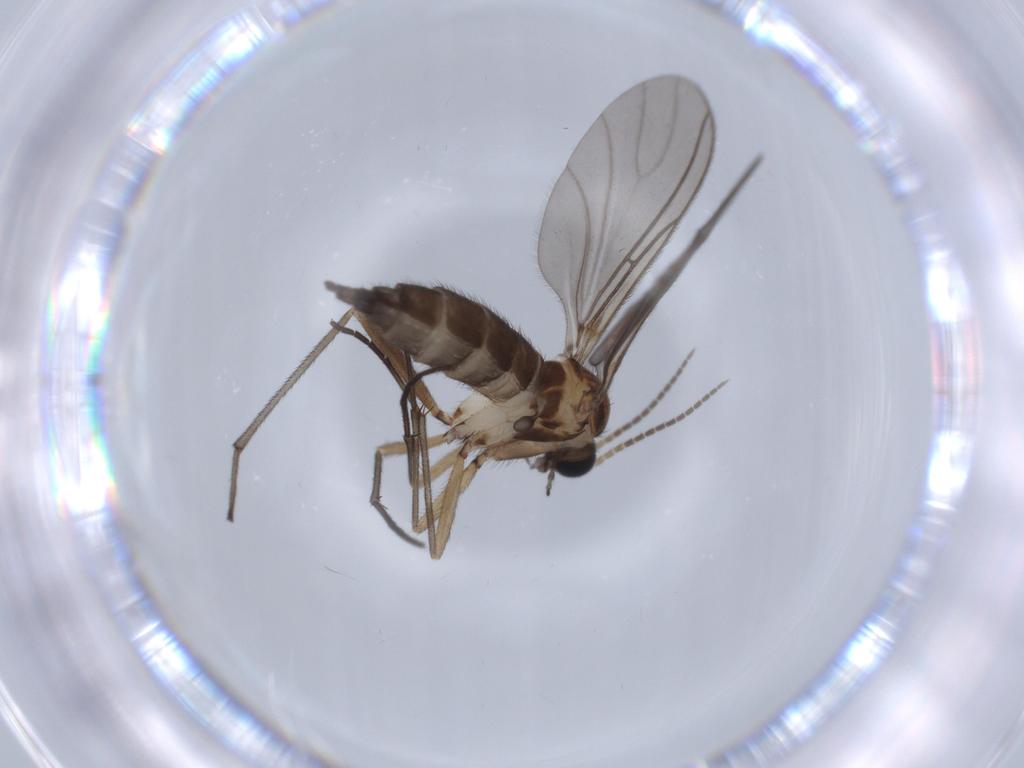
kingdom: Animalia
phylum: Arthropoda
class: Insecta
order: Diptera
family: Sciaridae
